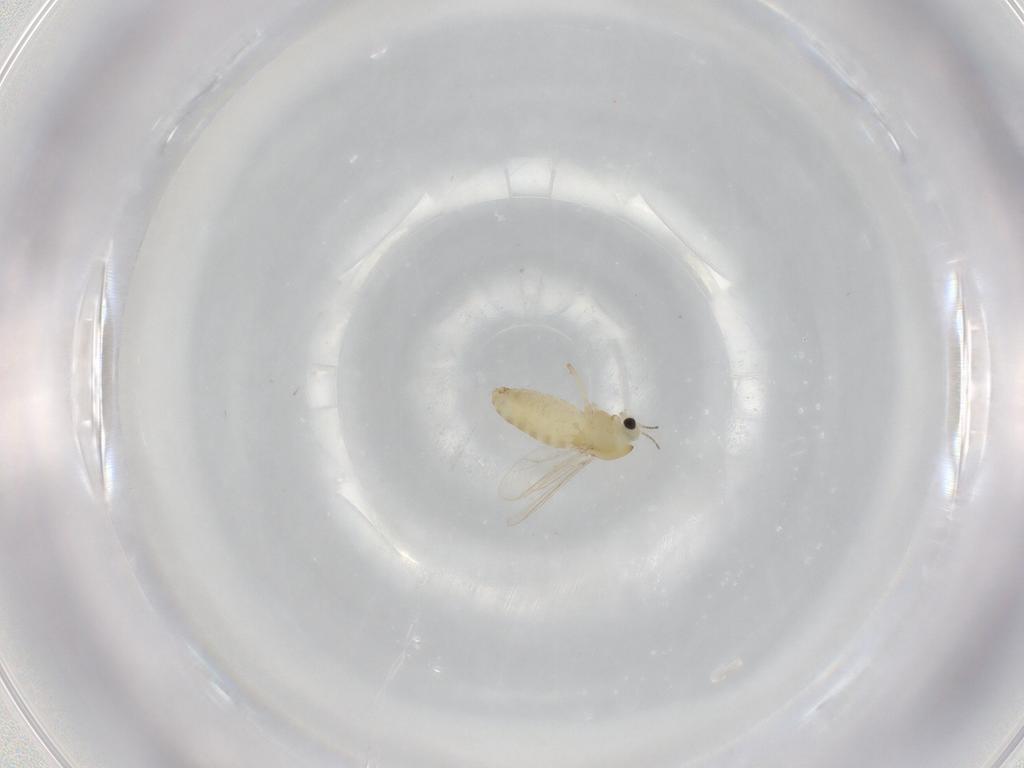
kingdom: Animalia
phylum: Arthropoda
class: Insecta
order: Diptera
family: Chironomidae
